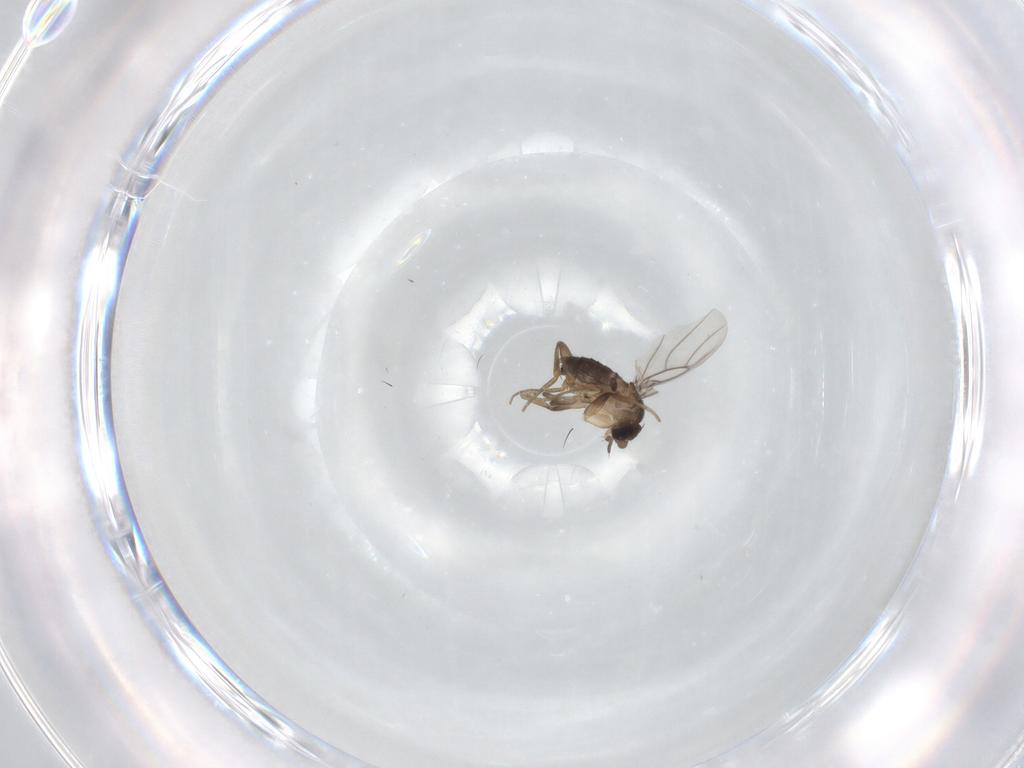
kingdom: Animalia
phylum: Arthropoda
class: Insecta
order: Diptera
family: Phoridae
